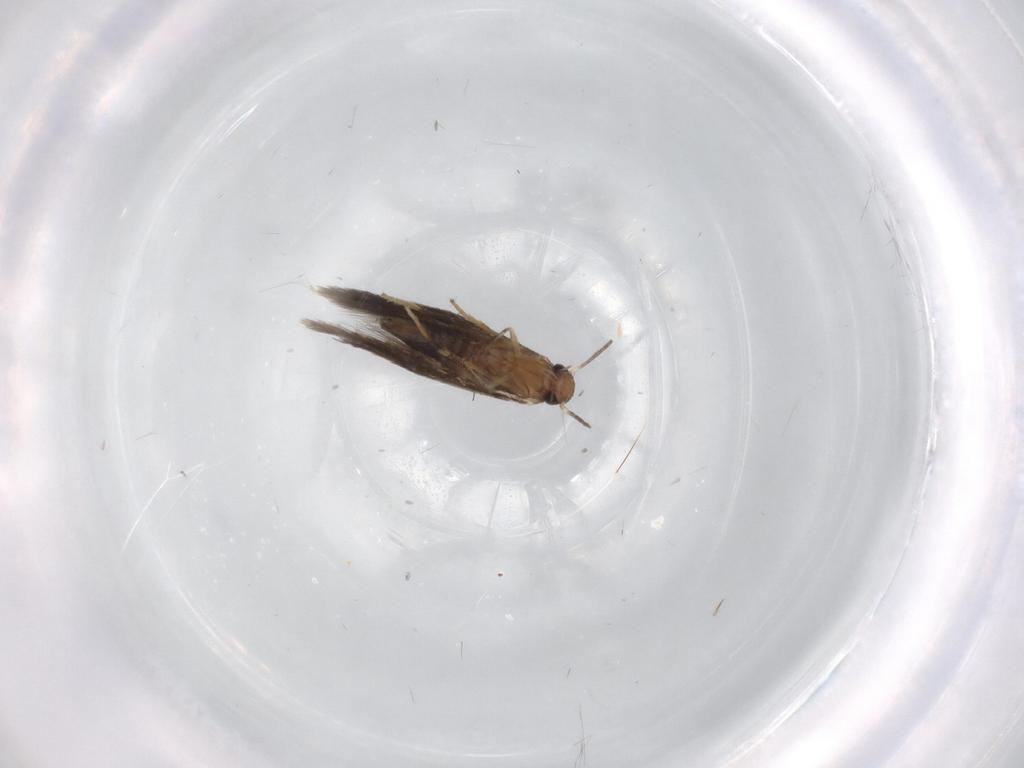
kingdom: Animalia
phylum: Arthropoda
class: Insecta
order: Lepidoptera
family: Heliozelidae
